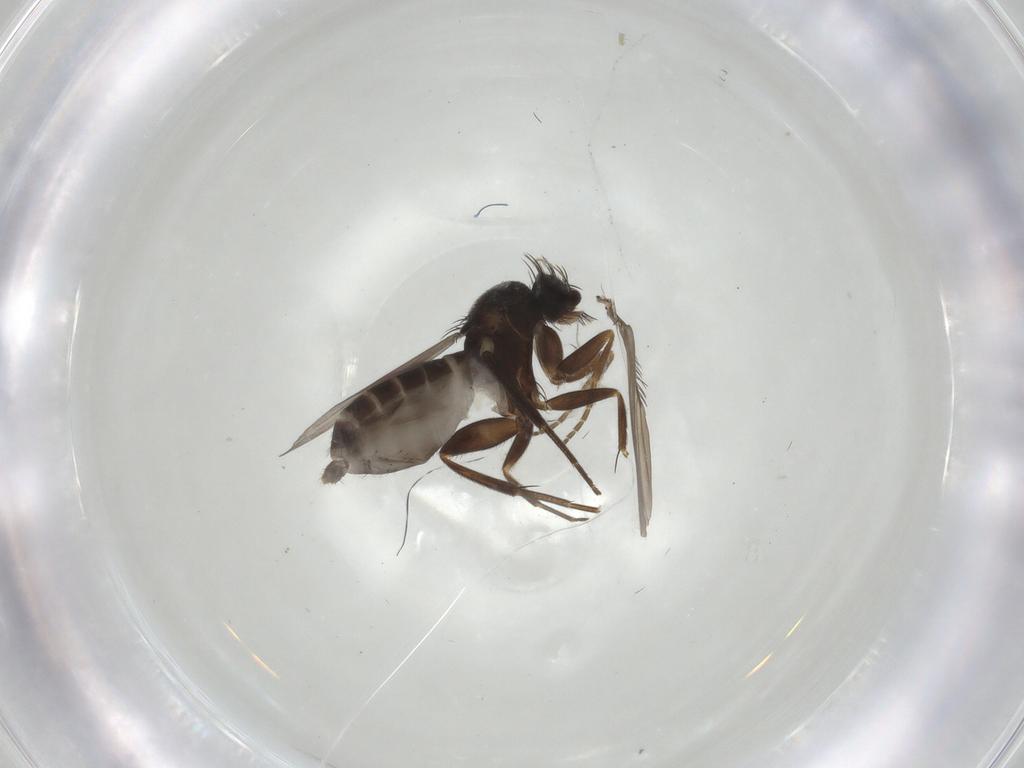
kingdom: Animalia
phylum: Arthropoda
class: Insecta
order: Diptera
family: Phoridae
